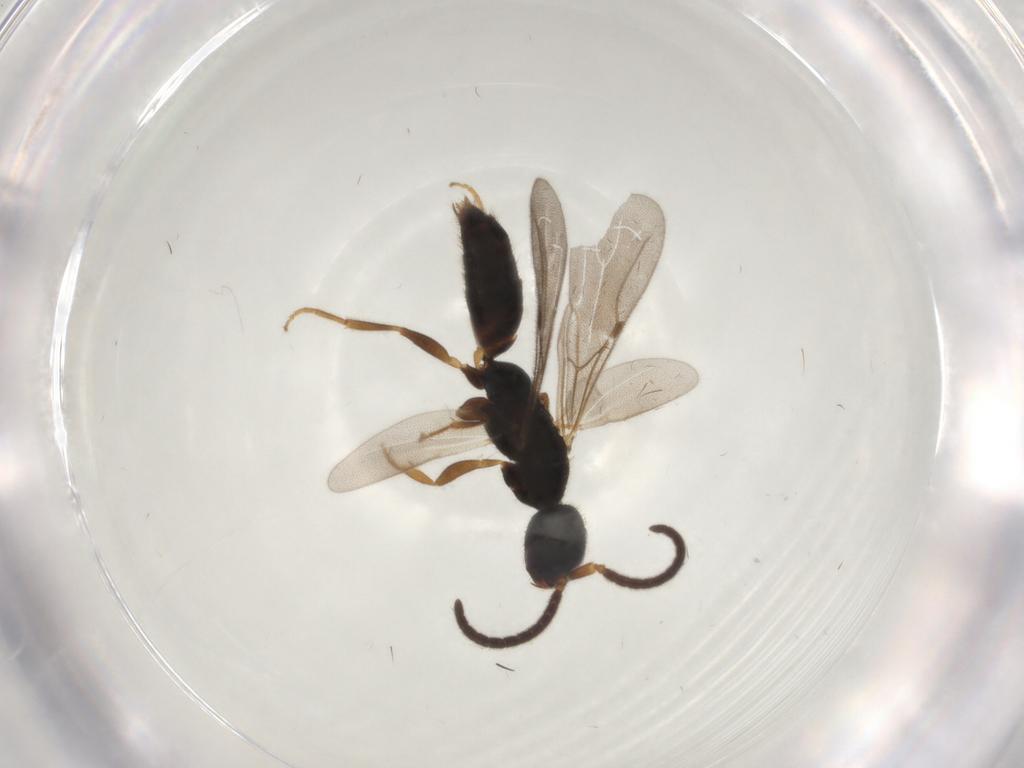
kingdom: Animalia
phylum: Arthropoda
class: Insecta
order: Hymenoptera
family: Bethylidae
